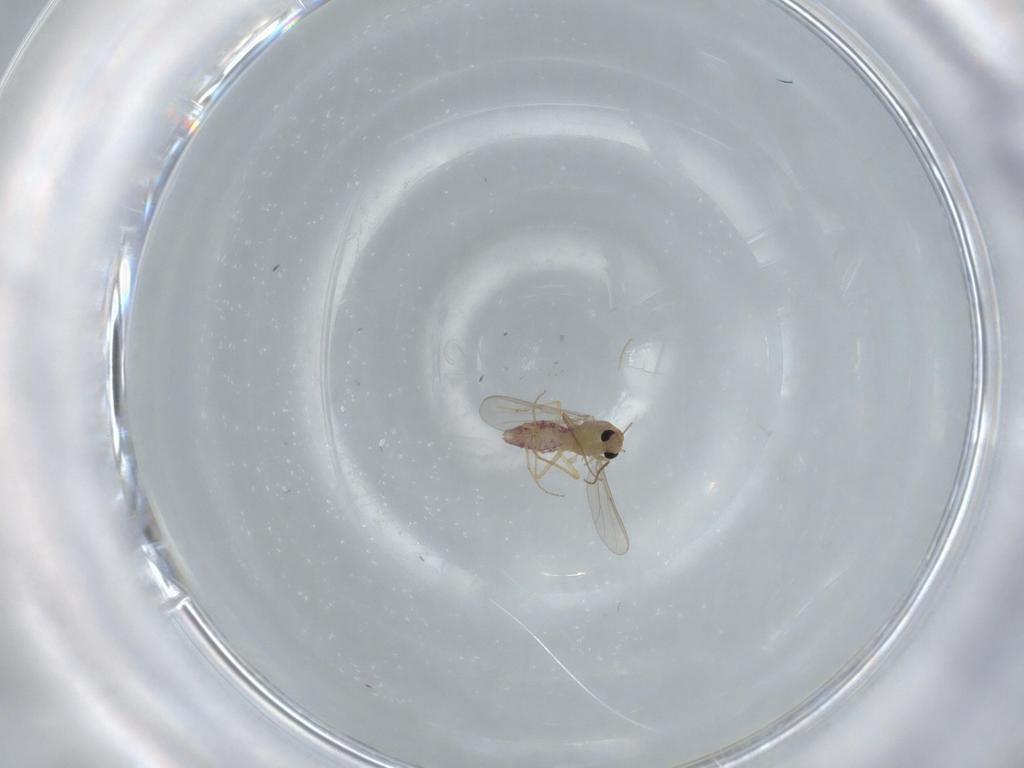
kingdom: Animalia
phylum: Arthropoda
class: Insecta
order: Diptera
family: Chironomidae
